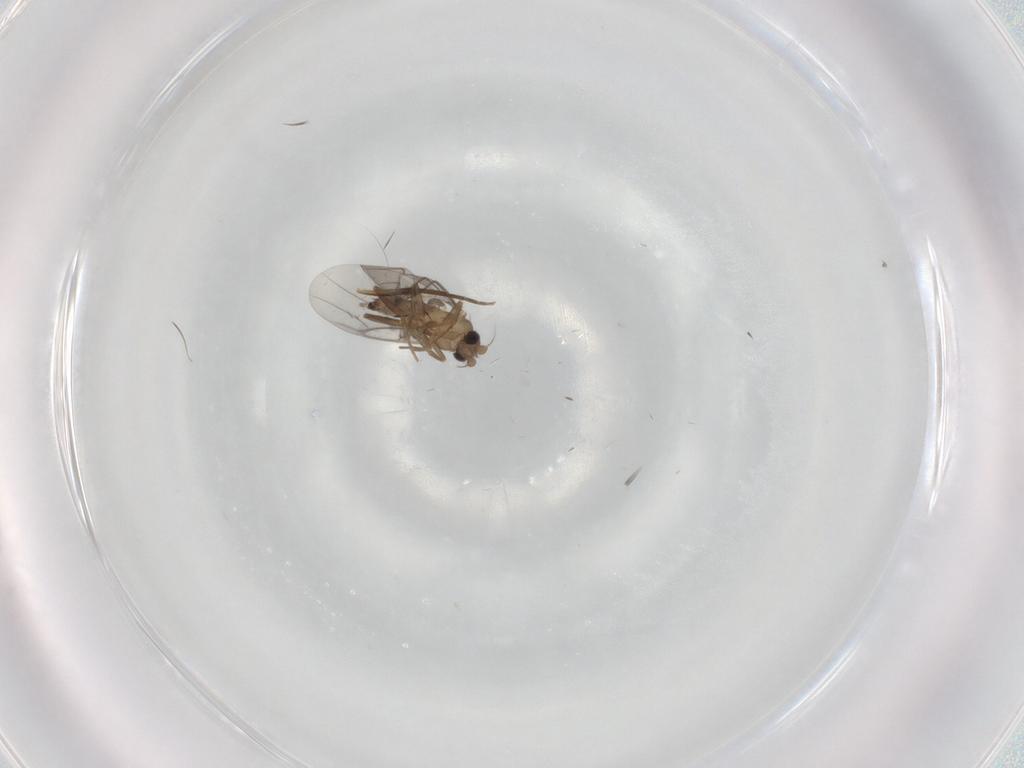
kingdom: Animalia
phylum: Arthropoda
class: Insecta
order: Diptera
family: Phoridae
